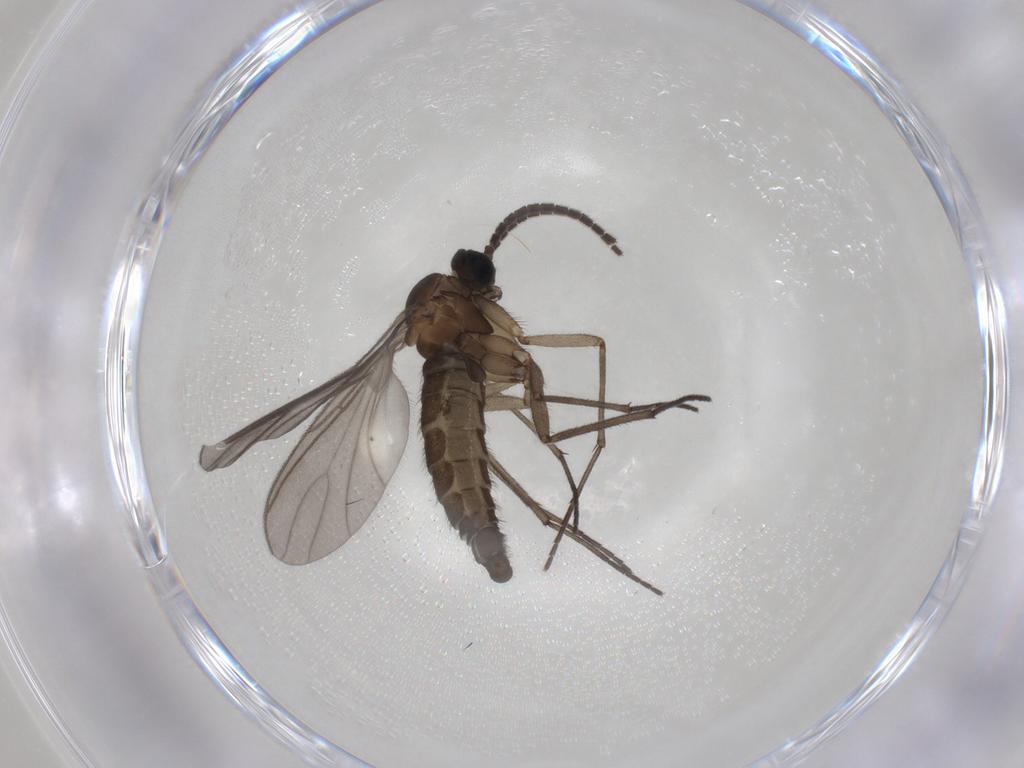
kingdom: Animalia
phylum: Arthropoda
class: Insecta
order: Diptera
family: Sciaridae
